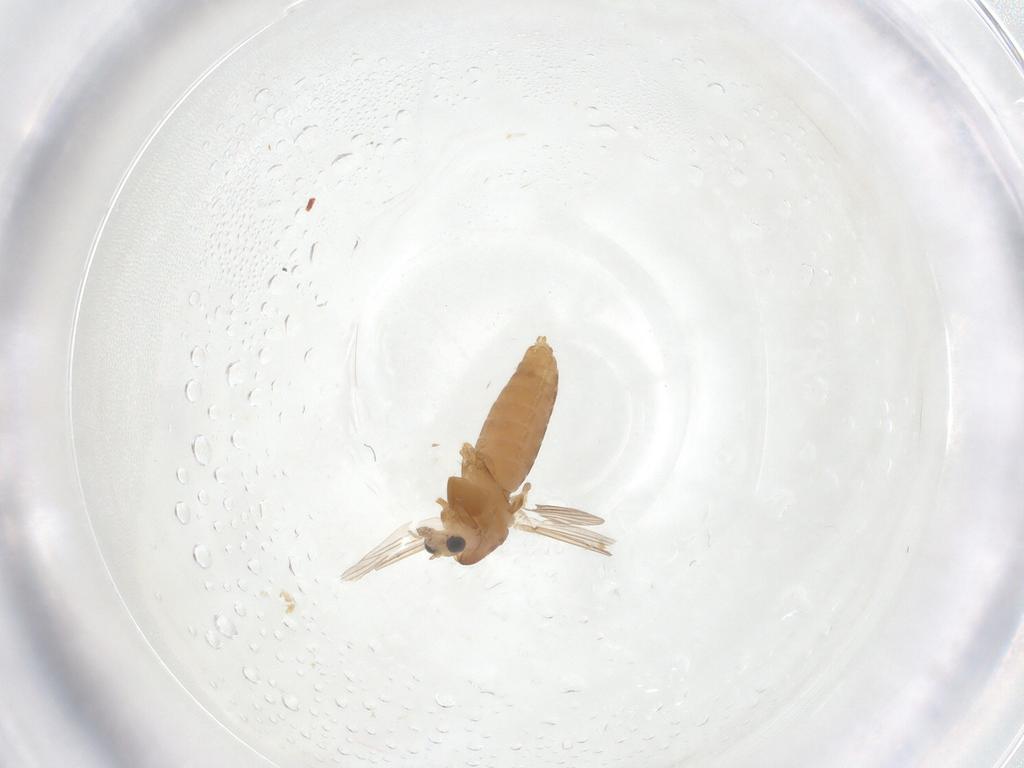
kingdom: Animalia
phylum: Arthropoda
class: Insecta
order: Diptera
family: Chironomidae
